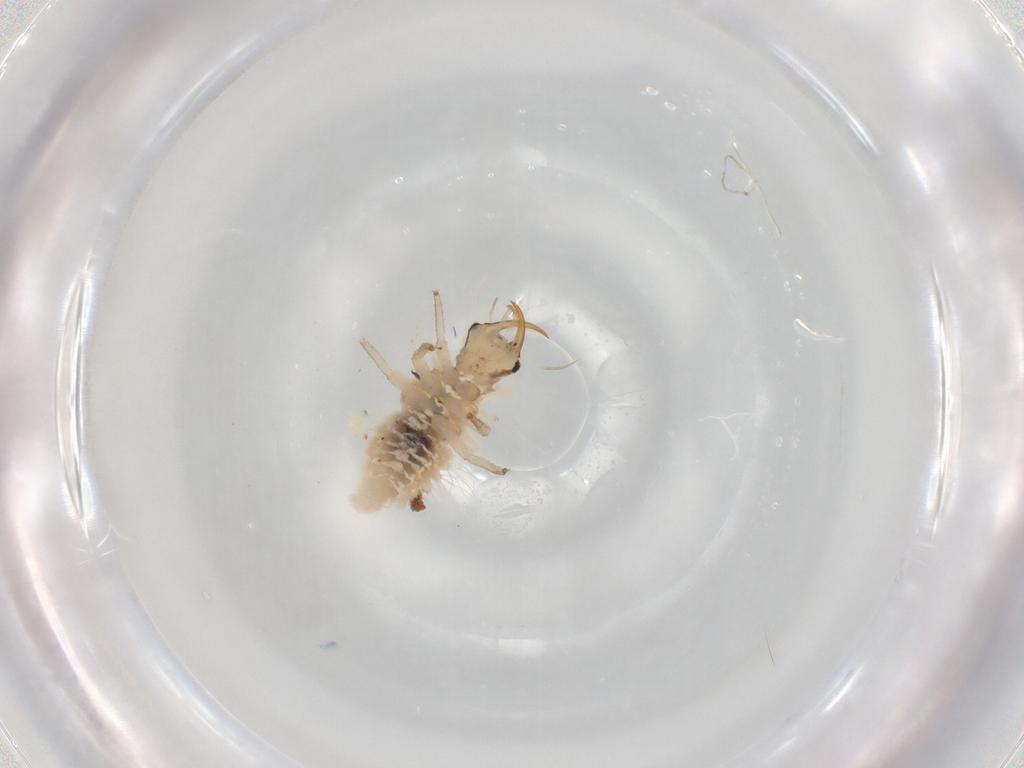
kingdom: Animalia
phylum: Arthropoda
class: Insecta
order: Neuroptera
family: Chrysopidae
